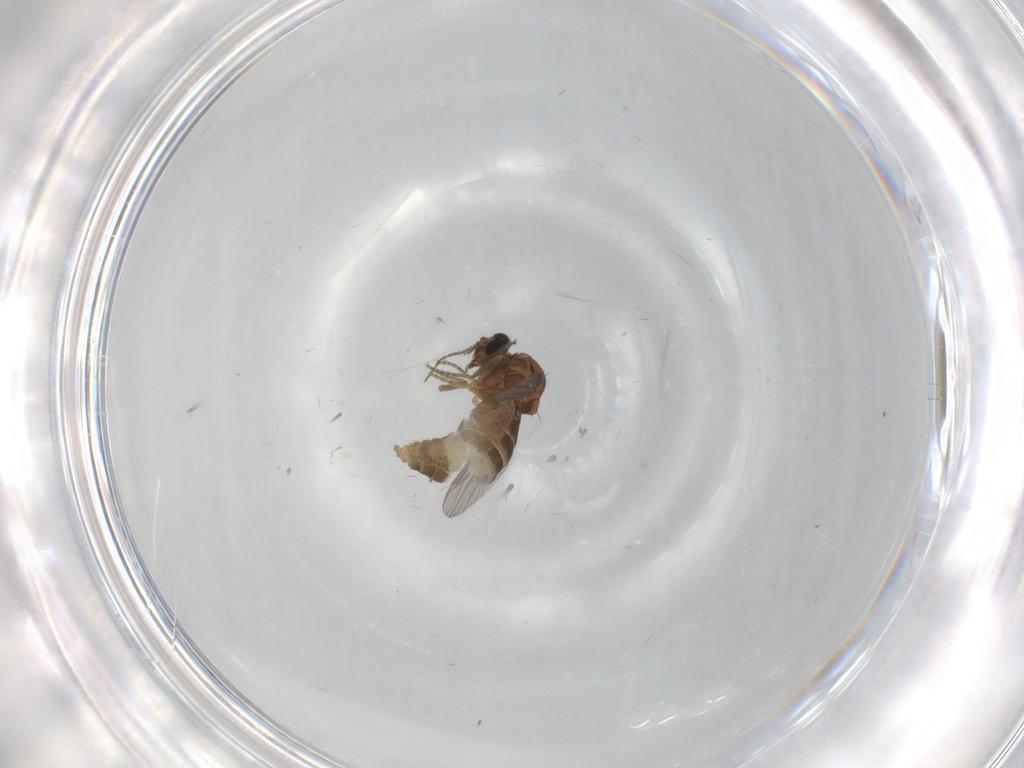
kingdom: Animalia
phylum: Arthropoda
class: Insecta
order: Diptera
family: Ceratopogonidae
